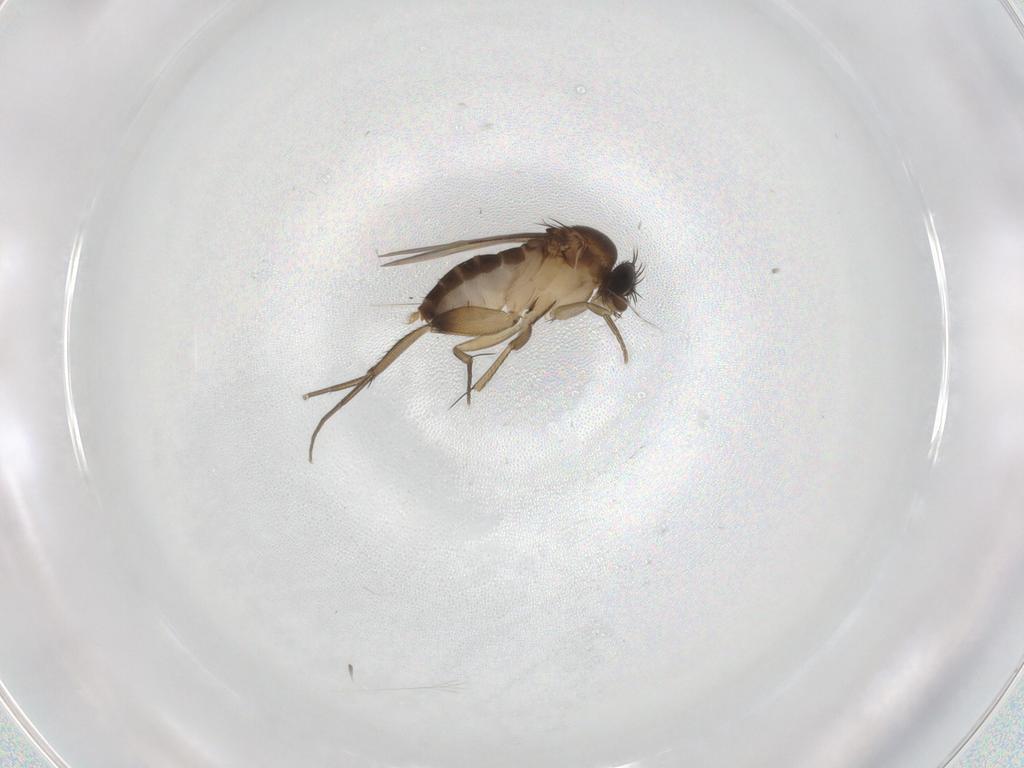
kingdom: Animalia
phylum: Arthropoda
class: Insecta
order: Diptera
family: Phoridae
